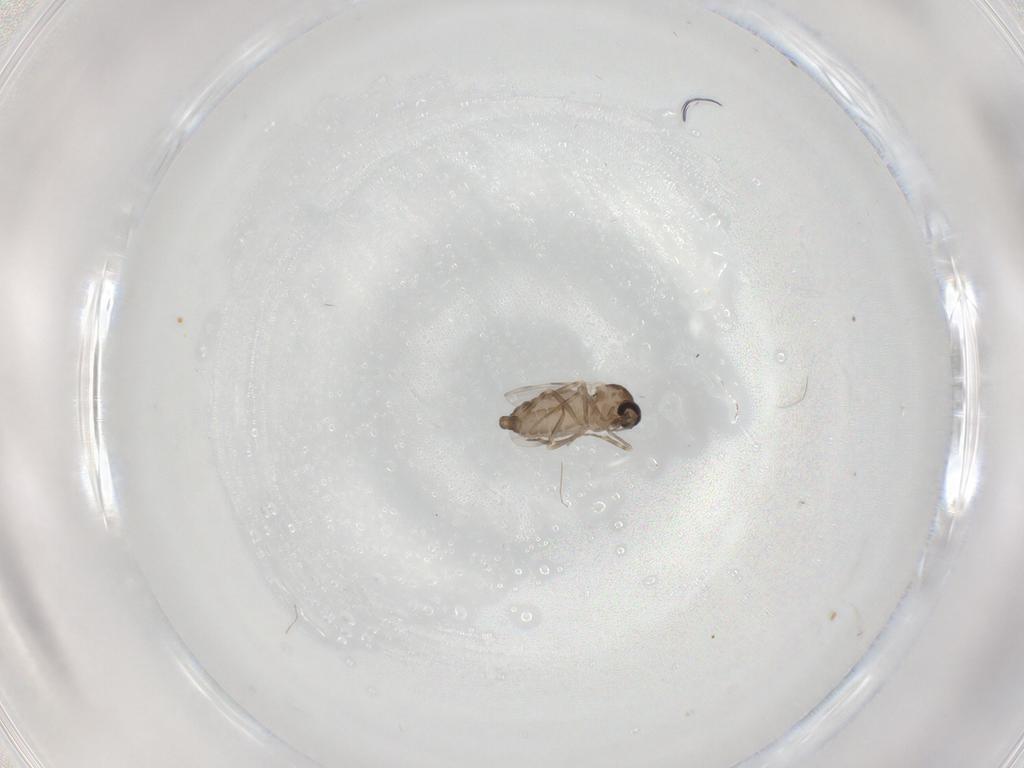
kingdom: Animalia
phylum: Arthropoda
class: Insecta
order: Diptera
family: Ceratopogonidae
